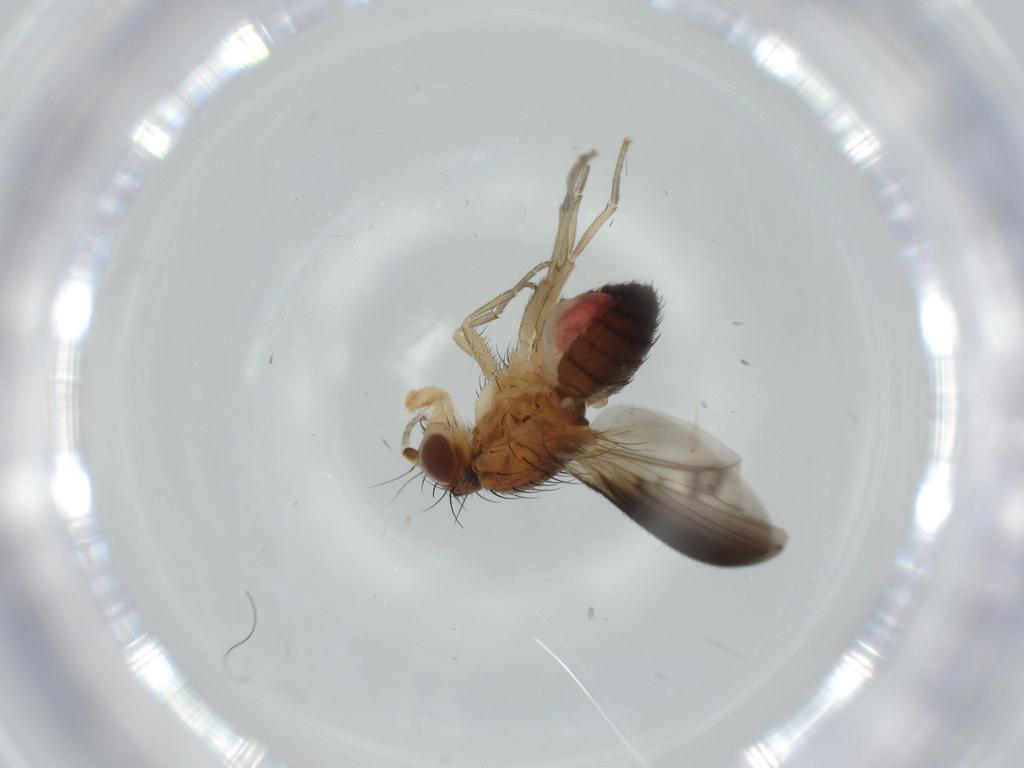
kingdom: Animalia
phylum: Arthropoda
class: Insecta
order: Diptera
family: Heleomyzidae
